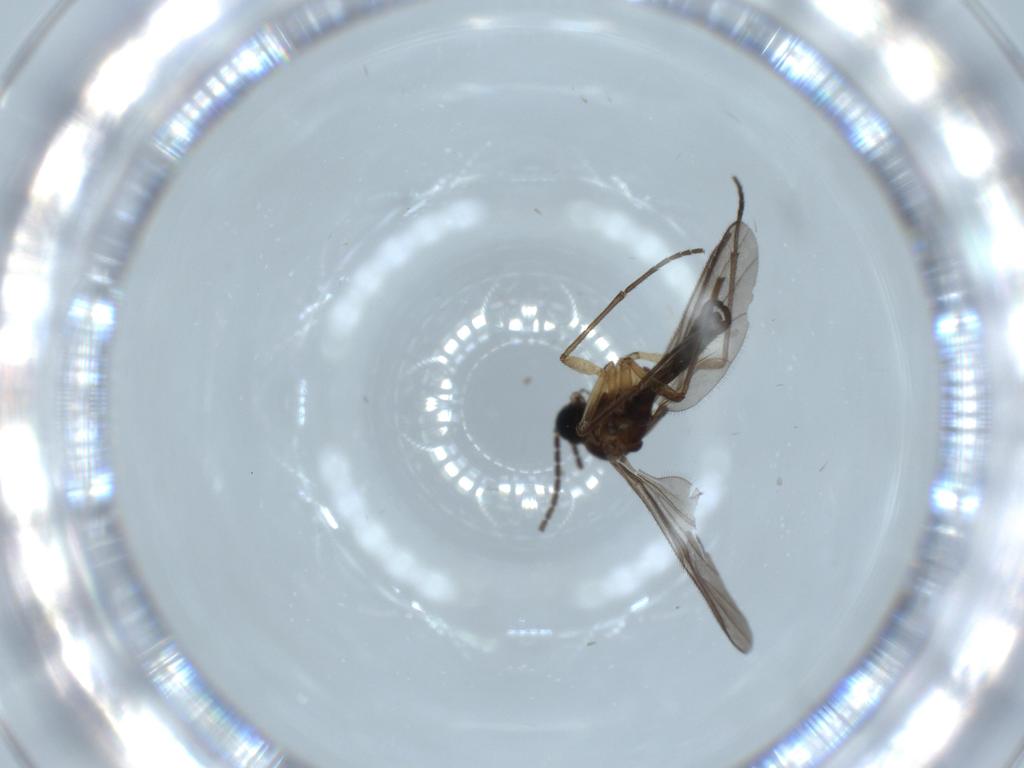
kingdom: Animalia
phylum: Arthropoda
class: Insecta
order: Diptera
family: Sciaridae
